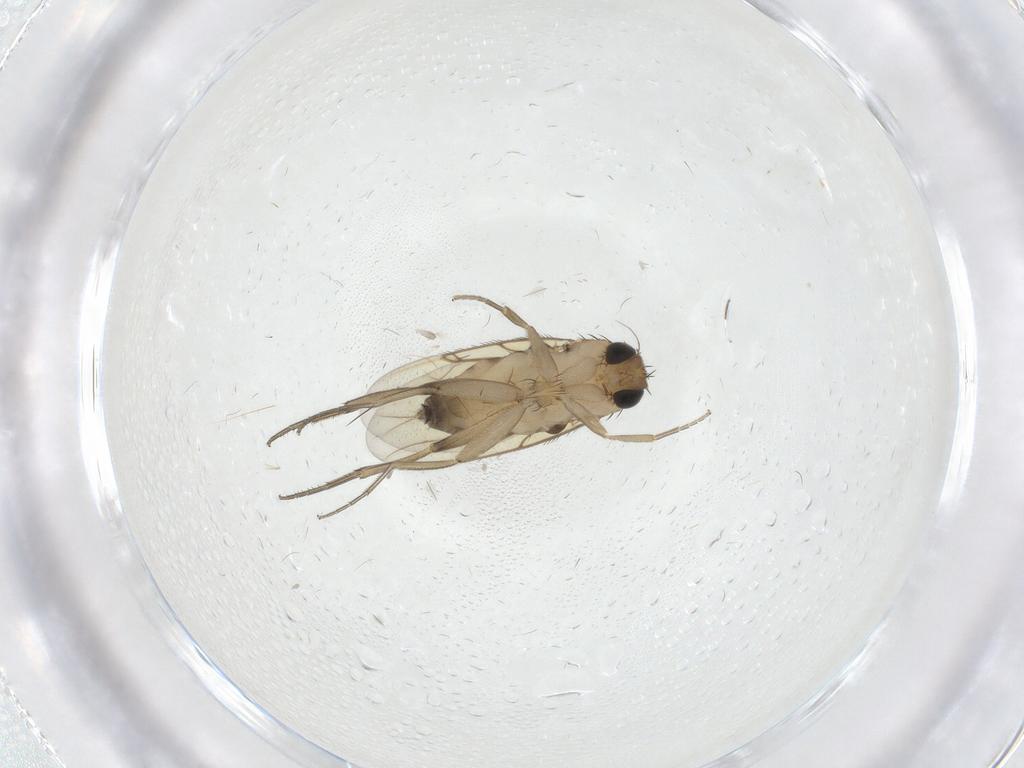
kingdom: Animalia
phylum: Arthropoda
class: Insecta
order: Diptera
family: Phoridae
